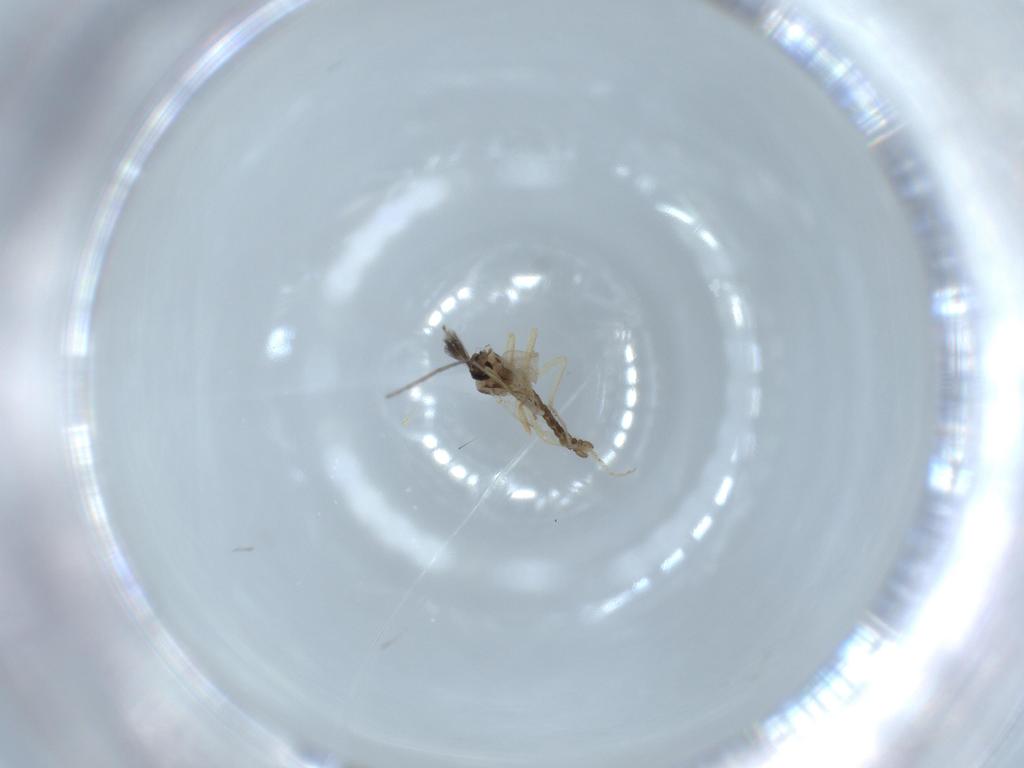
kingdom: Animalia
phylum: Arthropoda
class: Insecta
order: Diptera
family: Ceratopogonidae
